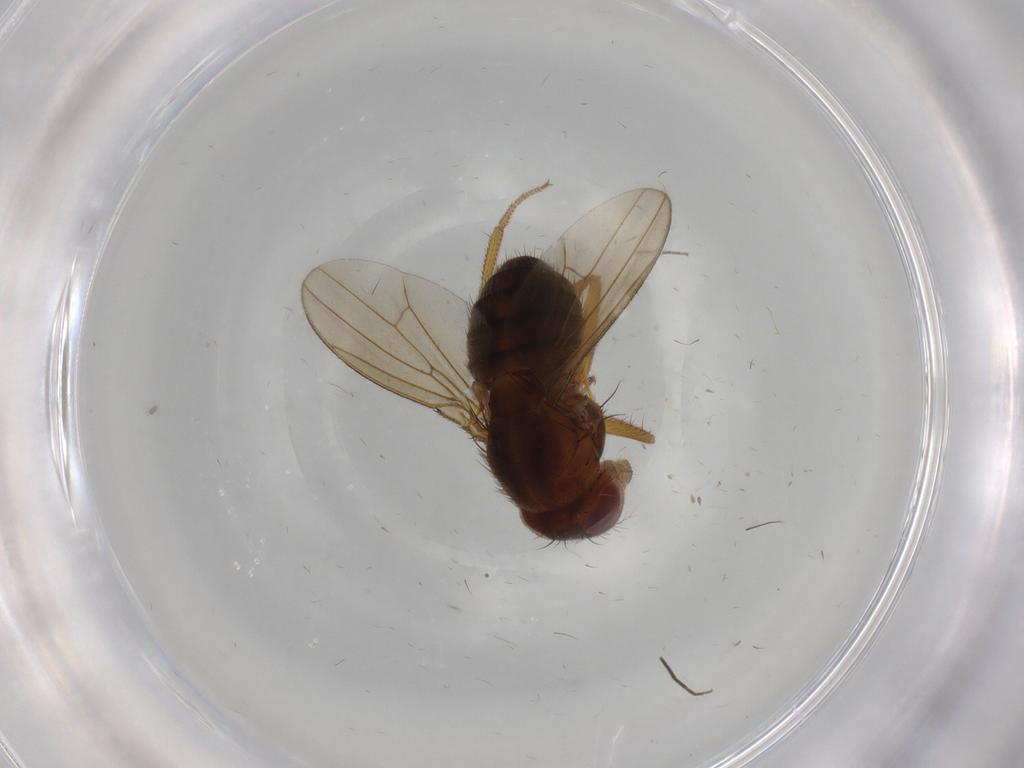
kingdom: Animalia
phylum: Arthropoda
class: Insecta
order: Diptera
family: Drosophilidae
